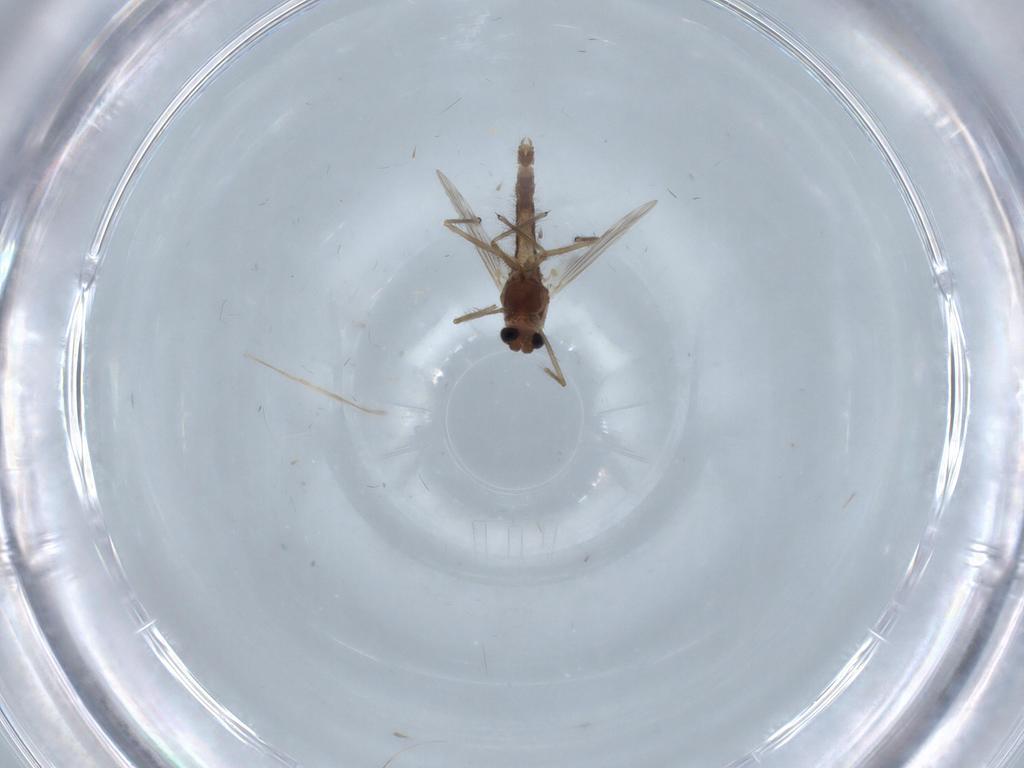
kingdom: Animalia
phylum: Arthropoda
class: Insecta
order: Diptera
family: Chironomidae
